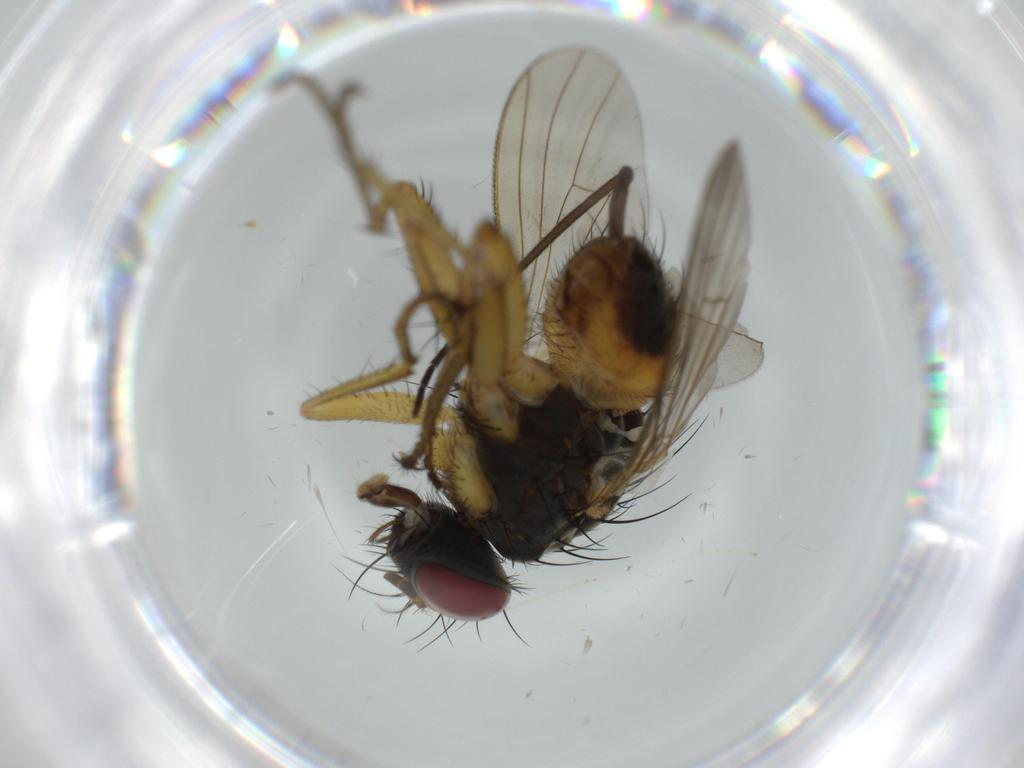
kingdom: Animalia
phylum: Arthropoda
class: Insecta
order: Diptera
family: Muscidae
